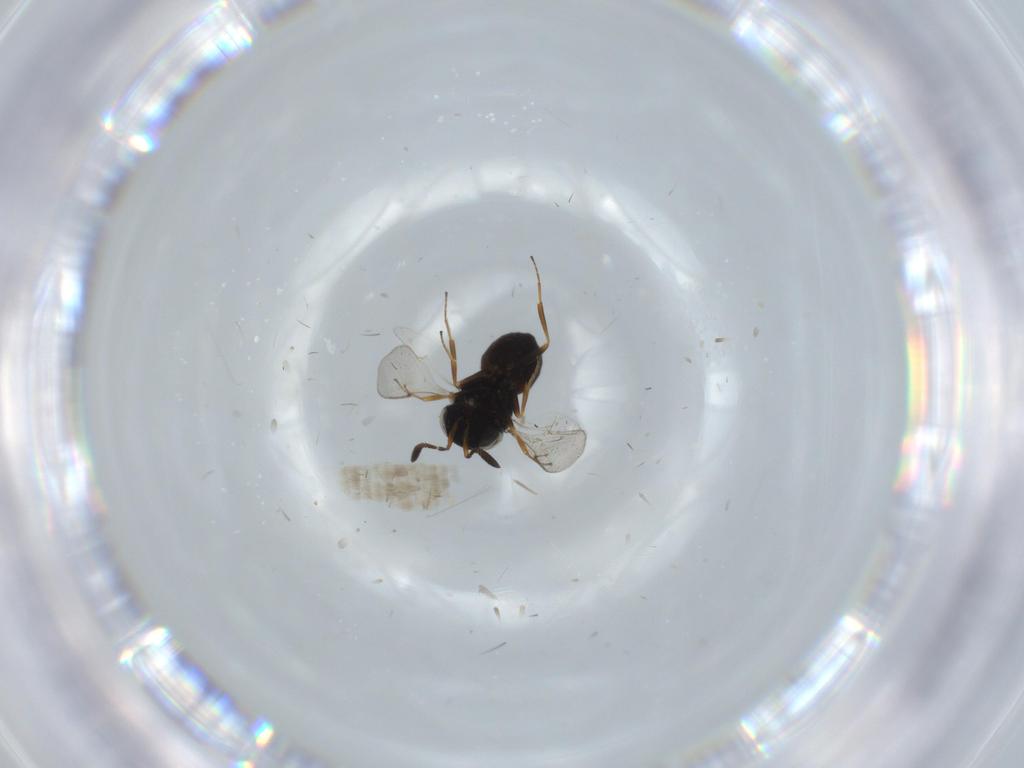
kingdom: Animalia
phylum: Arthropoda
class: Insecta
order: Hymenoptera
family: Scelionidae
